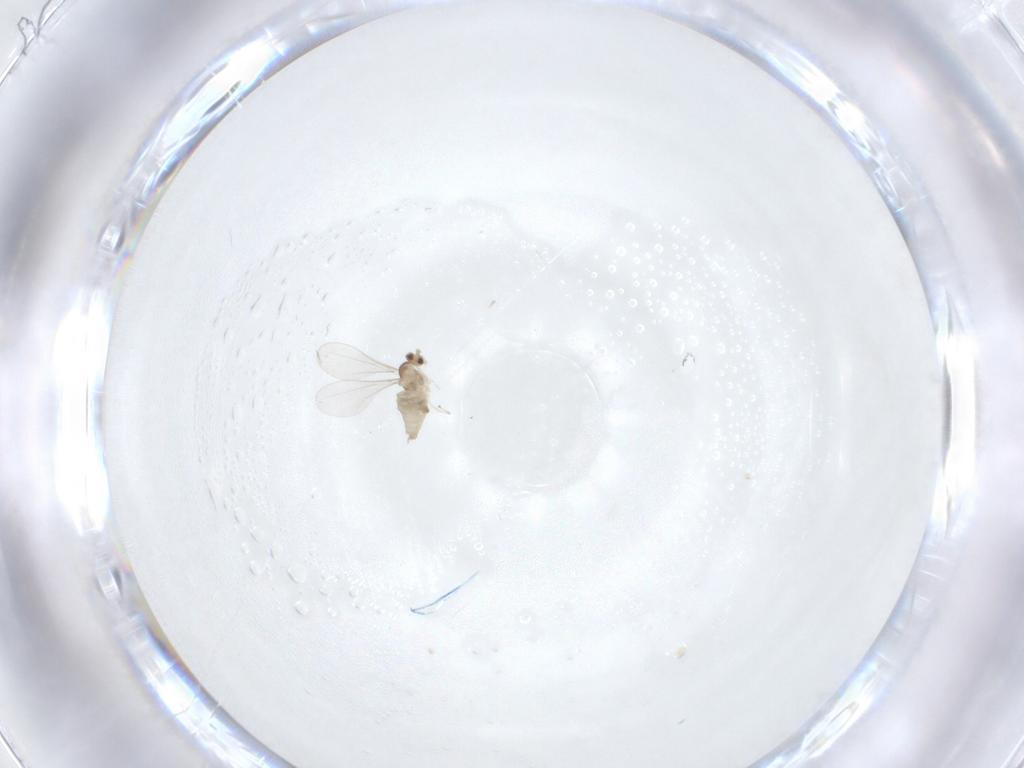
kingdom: Animalia
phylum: Arthropoda
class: Insecta
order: Diptera
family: Cecidomyiidae
